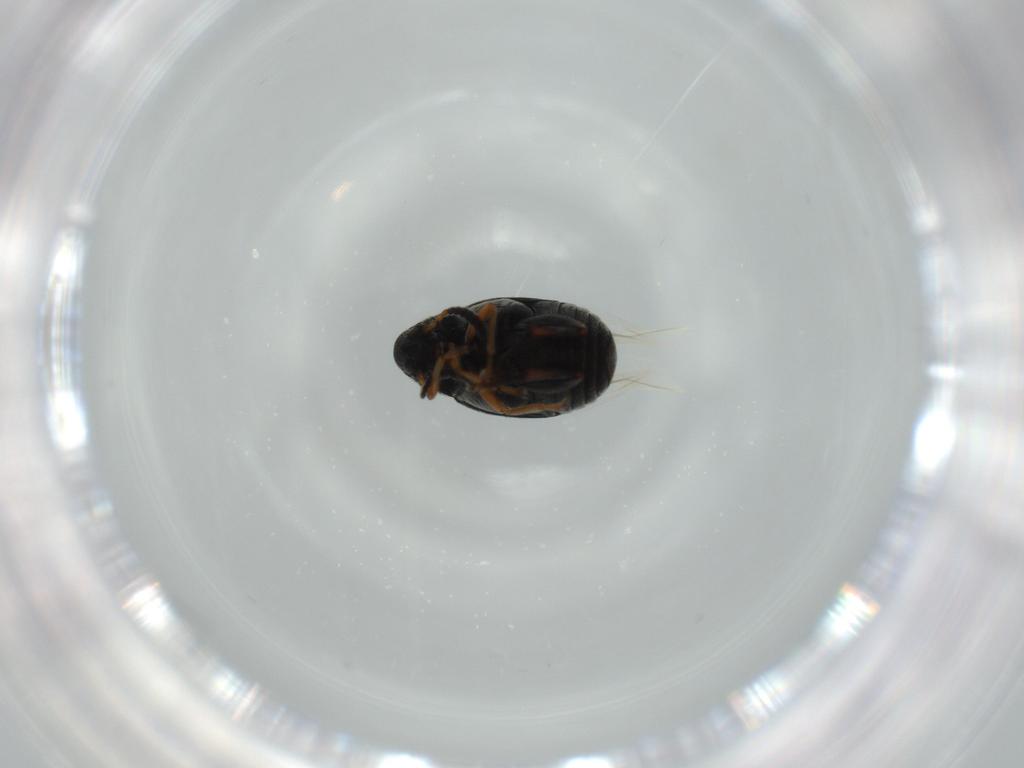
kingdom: Animalia
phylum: Arthropoda
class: Insecta
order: Coleoptera
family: Chrysomelidae
